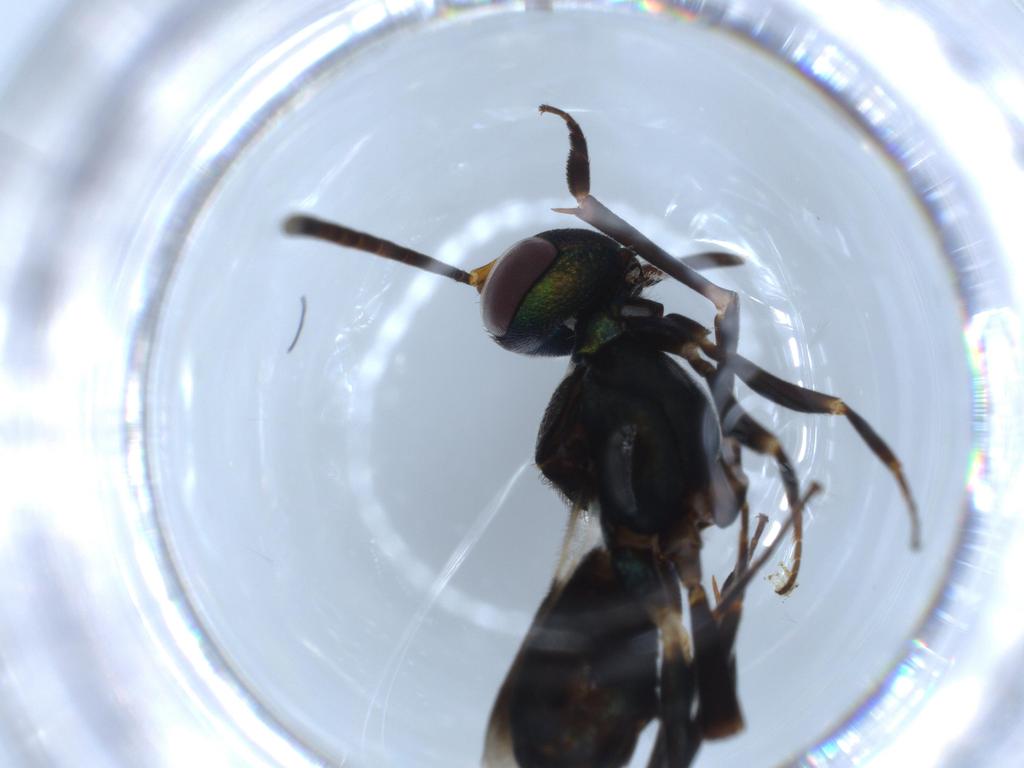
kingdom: Animalia
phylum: Arthropoda
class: Insecta
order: Hymenoptera
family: Eupelmidae
